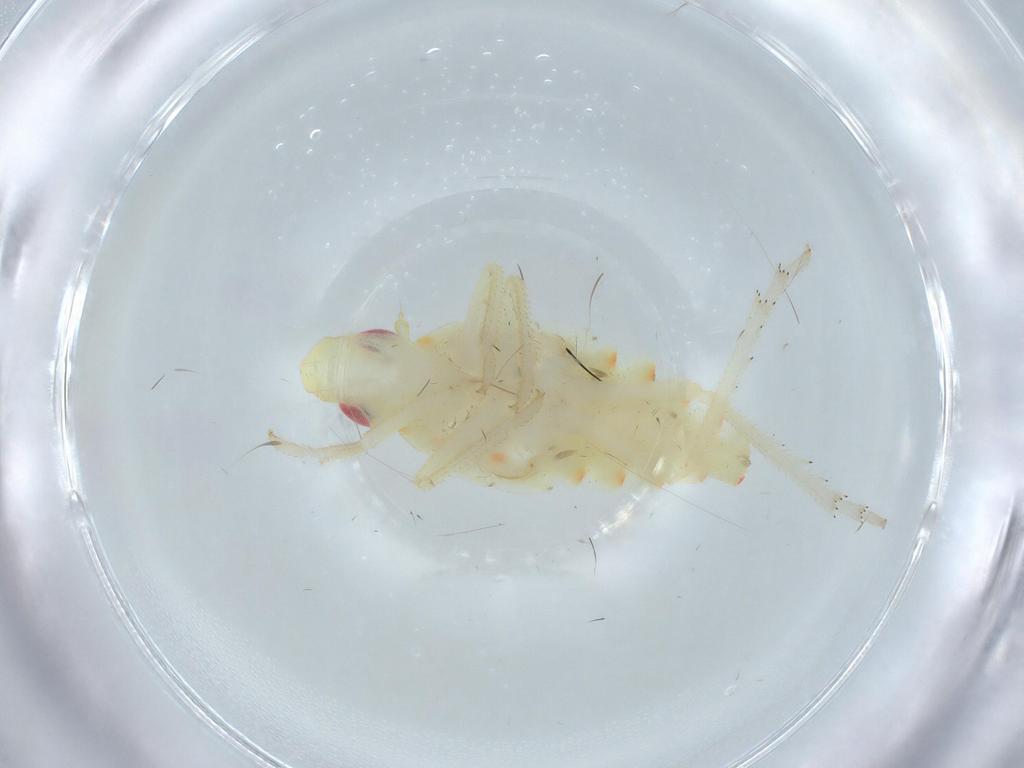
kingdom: Animalia
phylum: Arthropoda
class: Insecta
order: Hemiptera
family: Tropiduchidae
